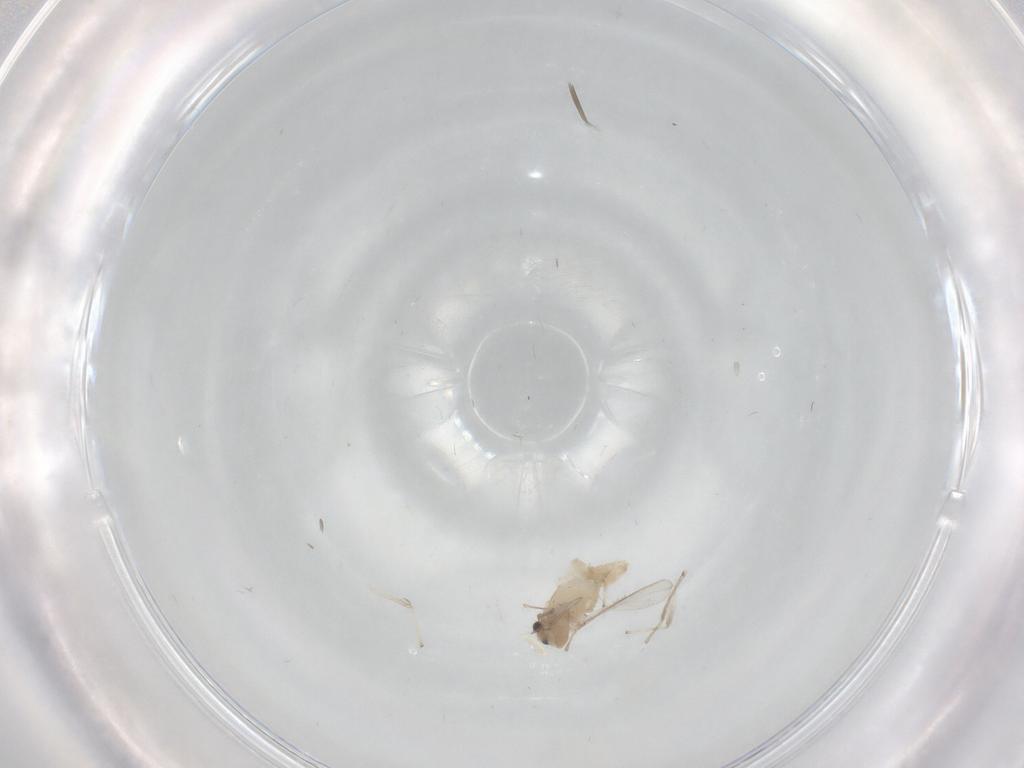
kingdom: Animalia
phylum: Arthropoda
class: Insecta
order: Diptera
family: Chironomidae
